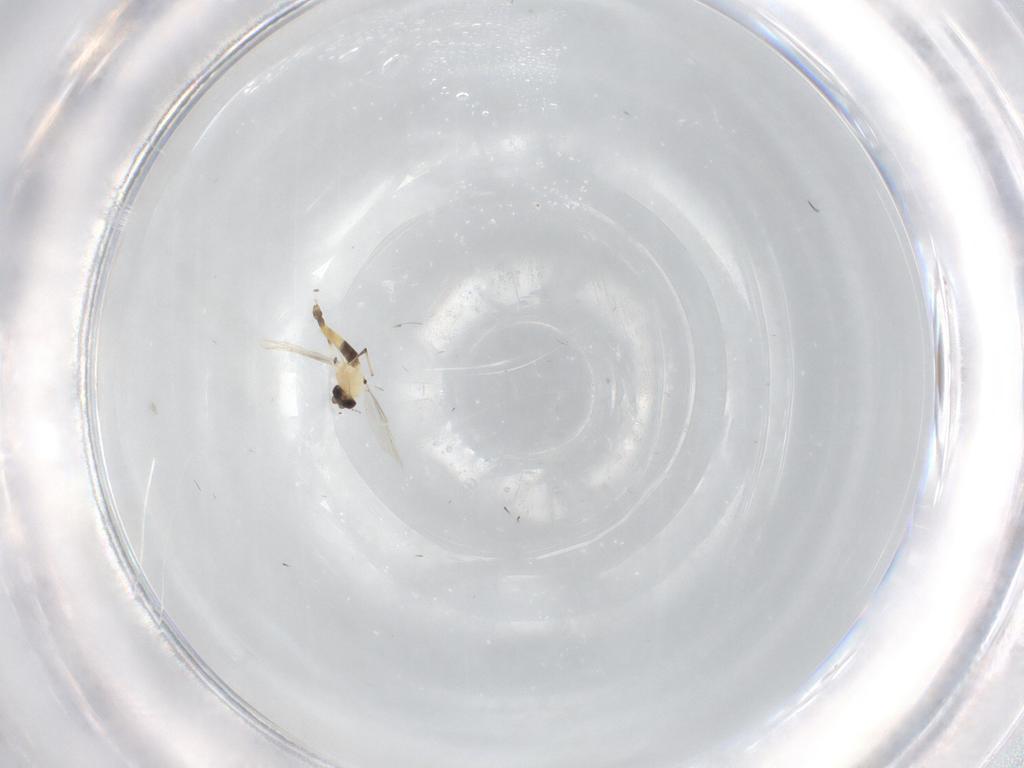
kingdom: Animalia
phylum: Arthropoda
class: Insecta
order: Diptera
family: Chironomidae
